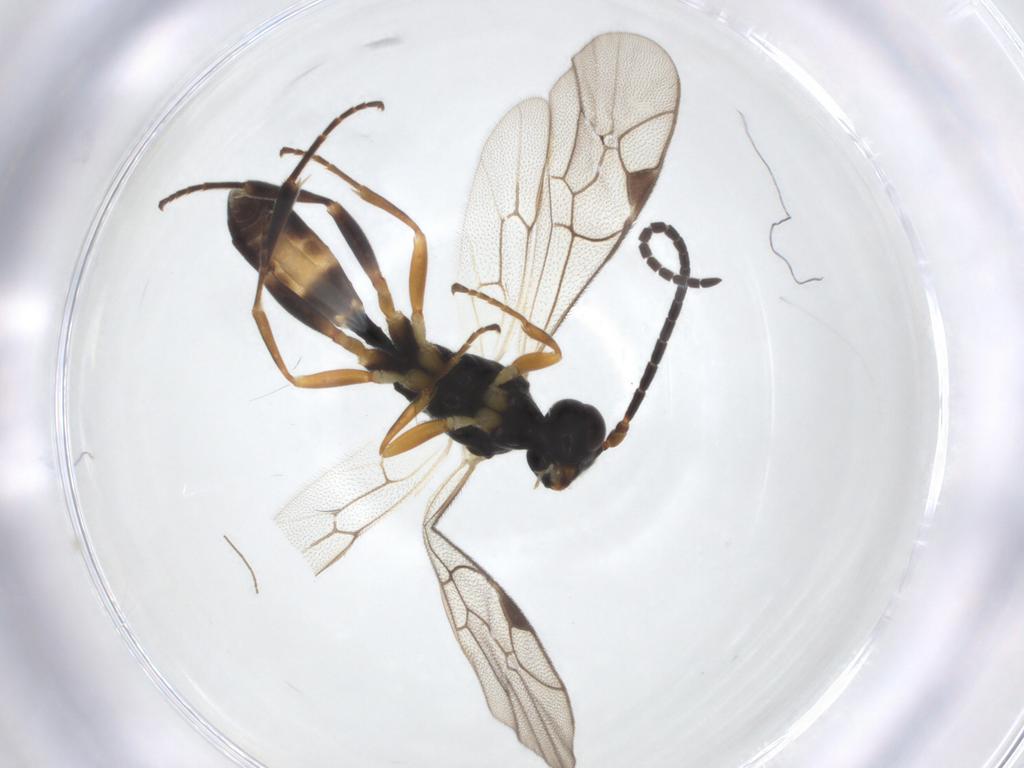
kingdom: Animalia
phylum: Arthropoda
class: Insecta
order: Hymenoptera
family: Ichneumonidae
